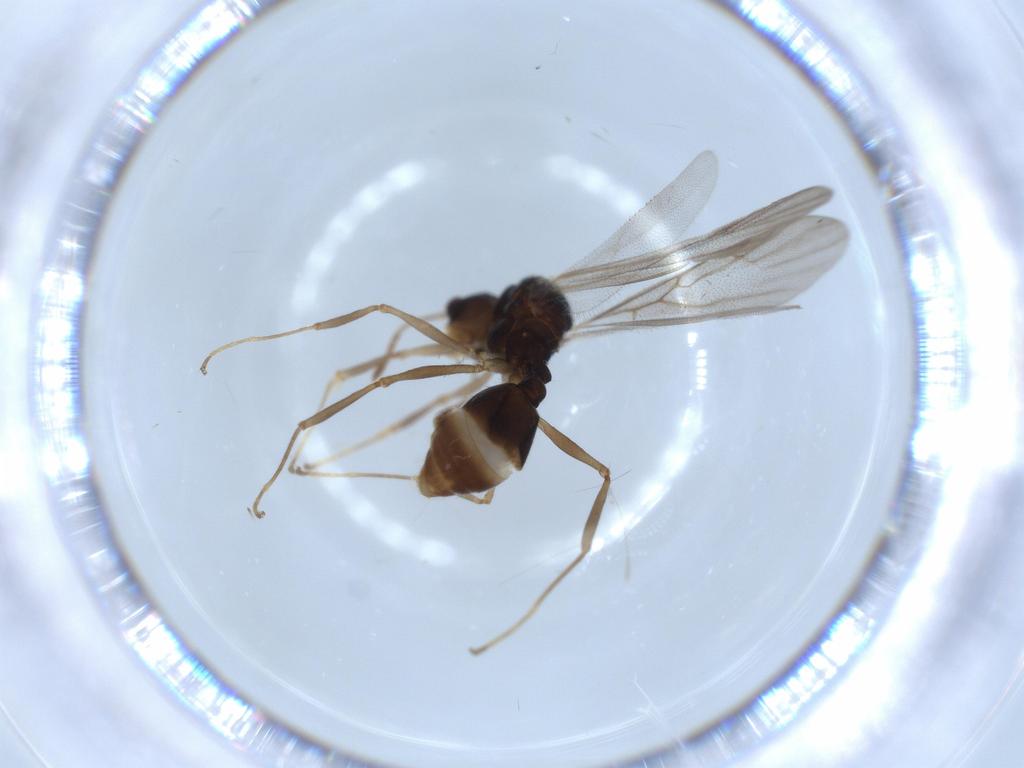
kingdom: Animalia
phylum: Arthropoda
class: Insecta
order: Hymenoptera
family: Formicidae
